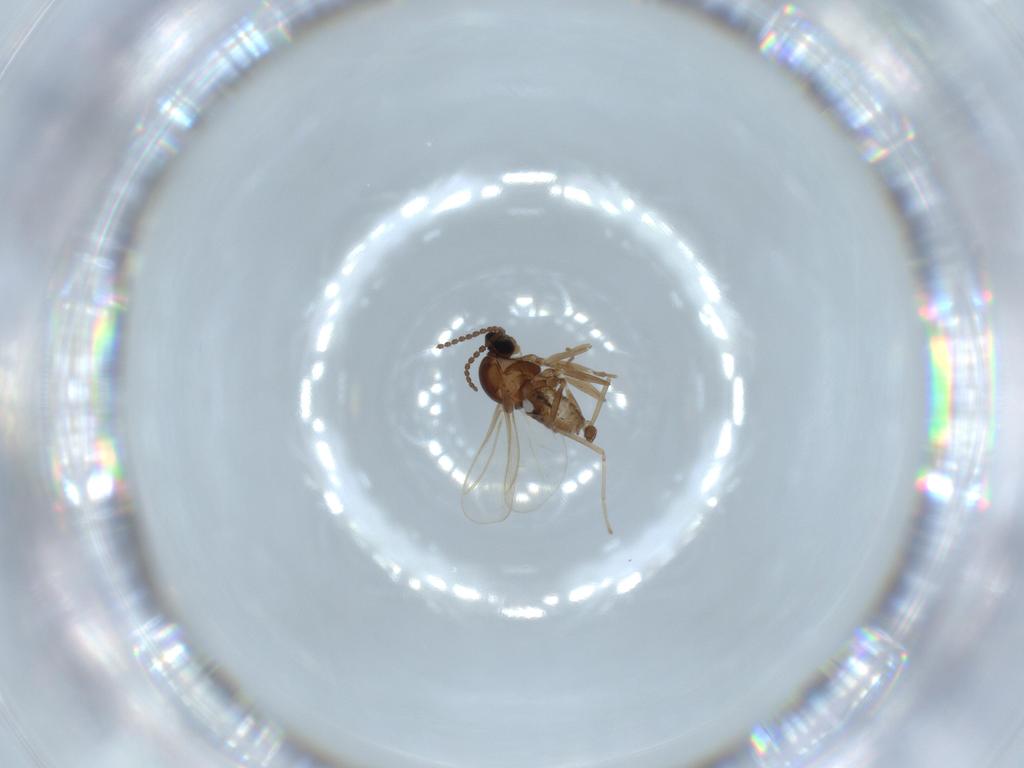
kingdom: Animalia
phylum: Arthropoda
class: Insecta
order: Diptera
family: Cecidomyiidae
